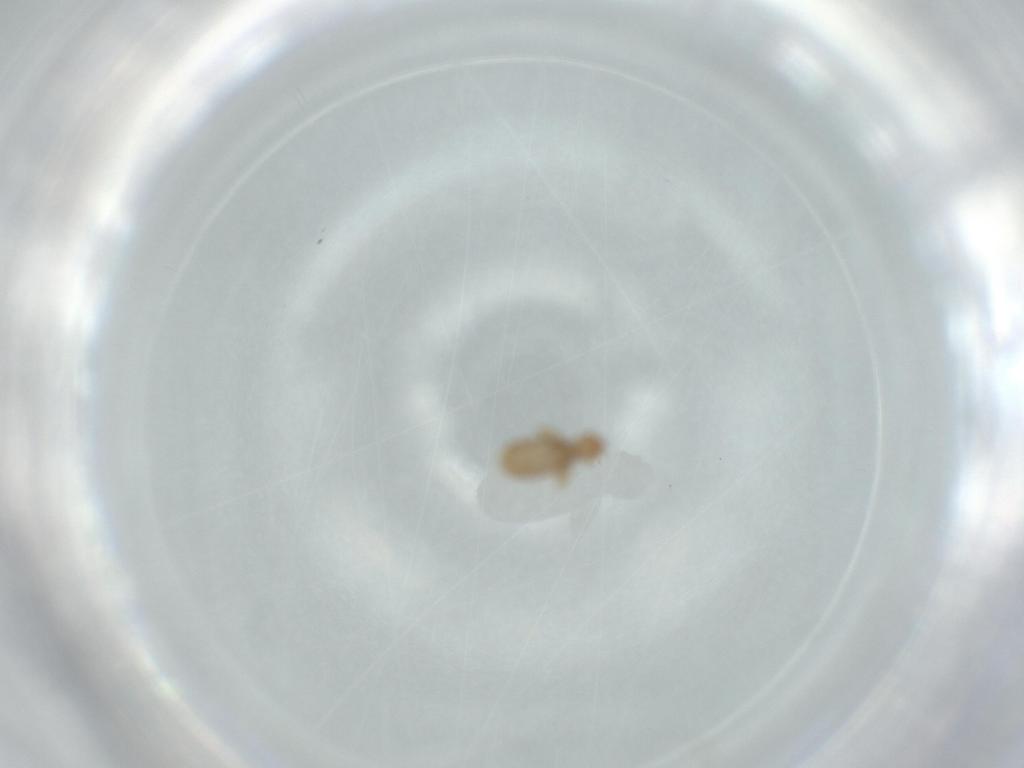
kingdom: Animalia
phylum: Arthropoda
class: Insecta
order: Psocodea
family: Liposcelididae
